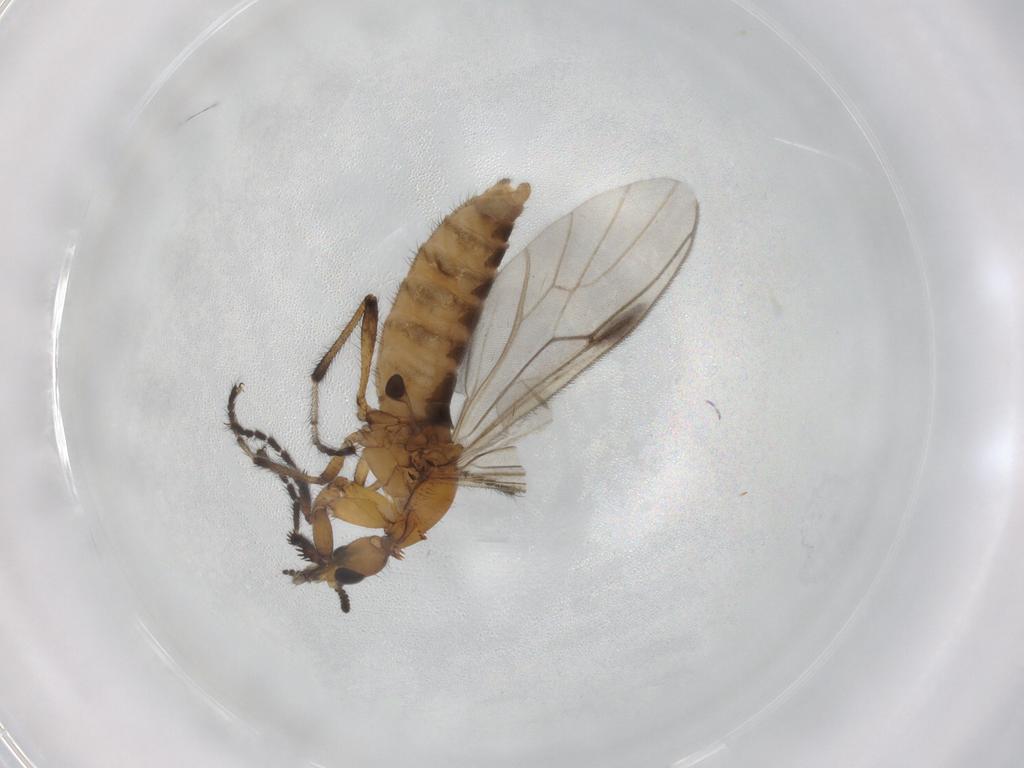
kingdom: Animalia
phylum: Arthropoda
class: Insecta
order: Diptera
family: Bibionidae
